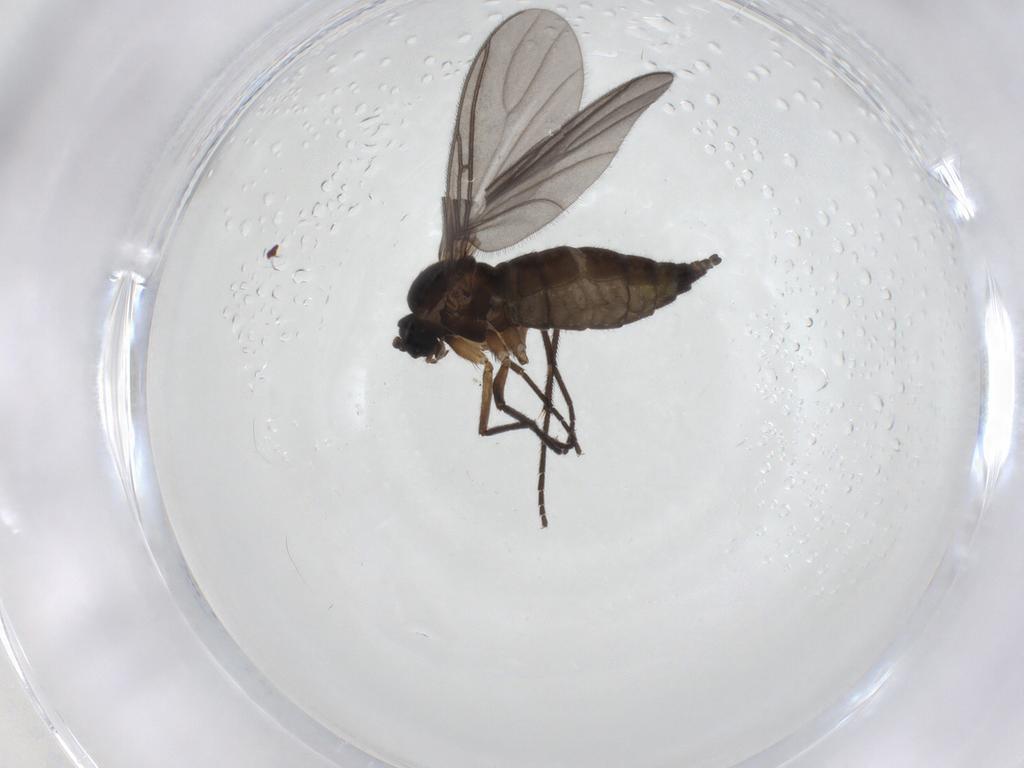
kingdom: Animalia
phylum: Arthropoda
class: Insecta
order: Diptera
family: Sciaridae
